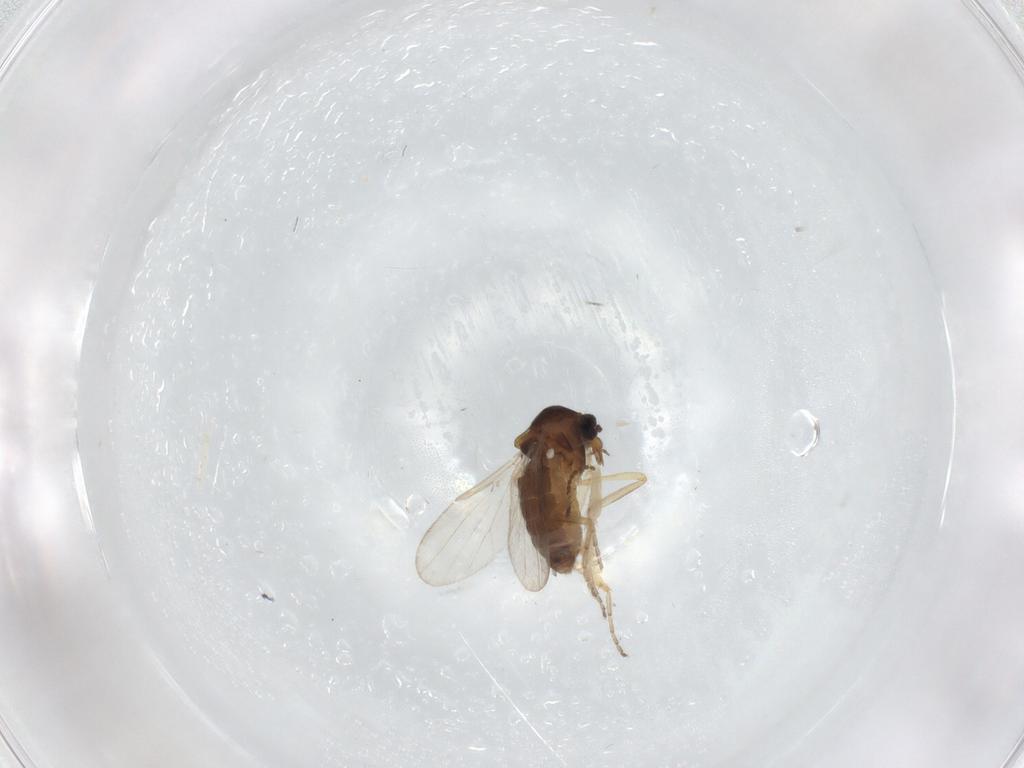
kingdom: Animalia
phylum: Arthropoda
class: Insecta
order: Diptera
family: Ceratopogonidae
